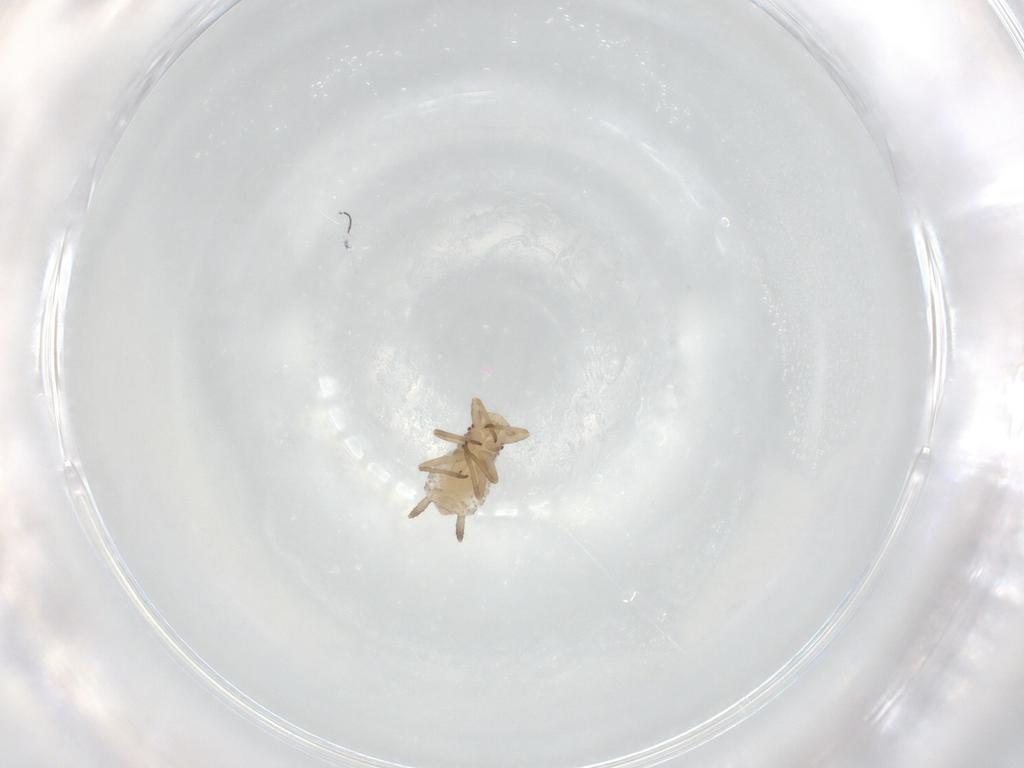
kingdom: Animalia
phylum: Arthropoda
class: Insecta
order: Hemiptera
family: Aphididae
